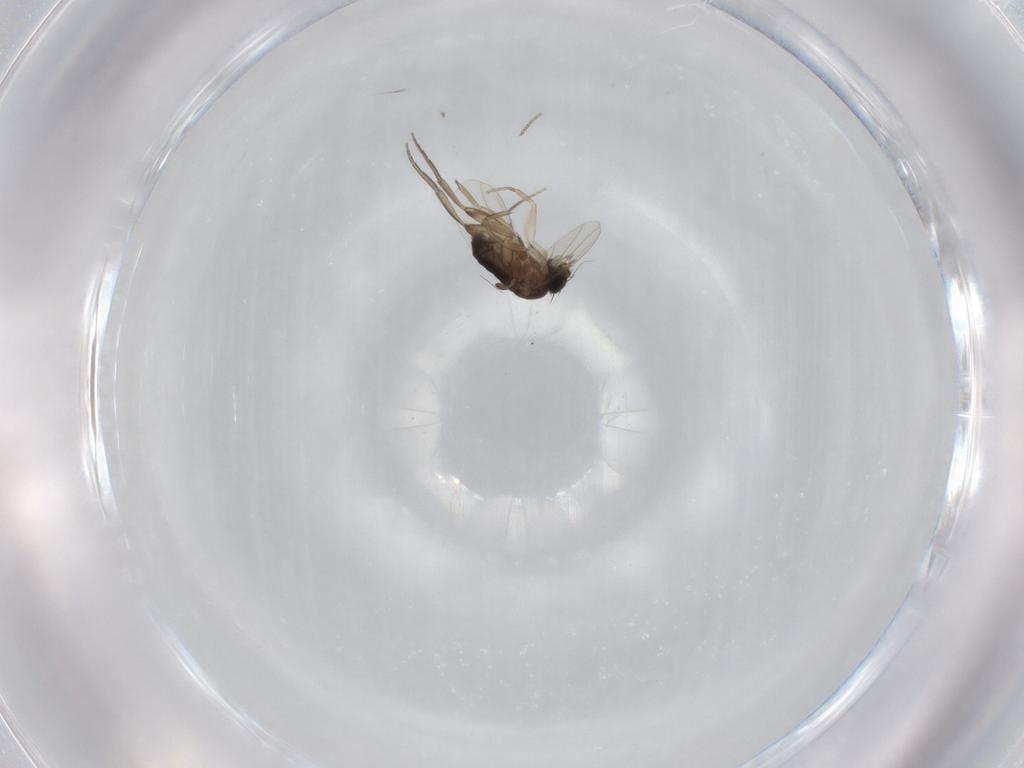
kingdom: Animalia
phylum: Arthropoda
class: Insecta
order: Diptera
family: Phoridae
